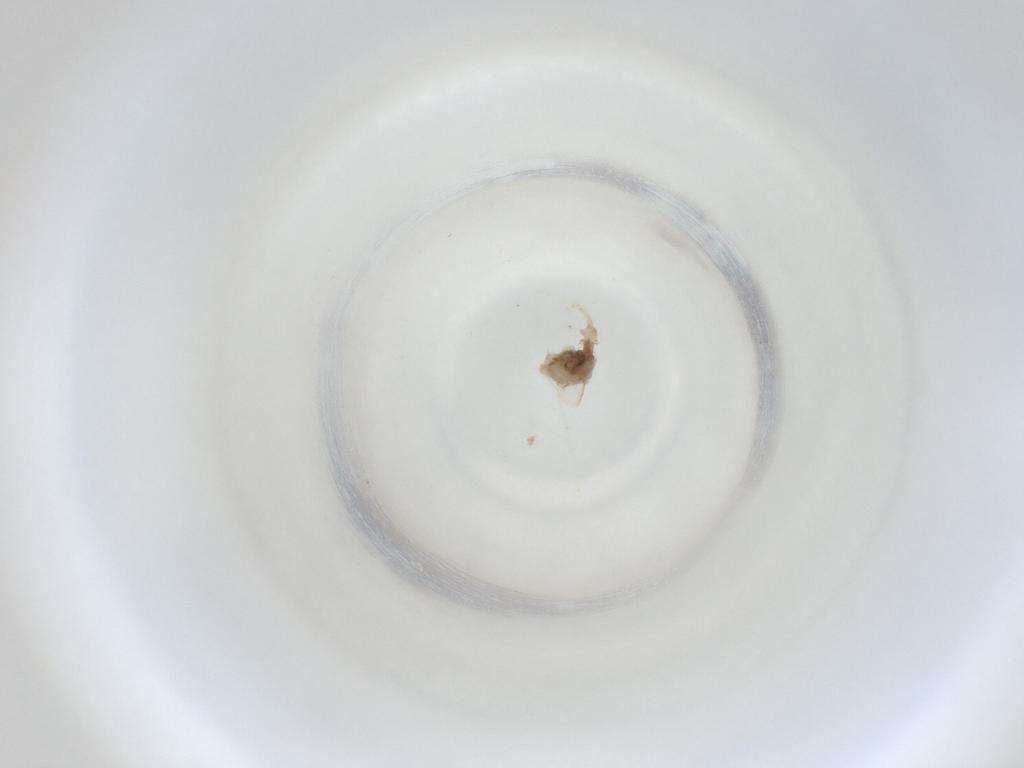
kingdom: Animalia
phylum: Arthropoda
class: Insecta
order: Diptera
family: Cecidomyiidae
